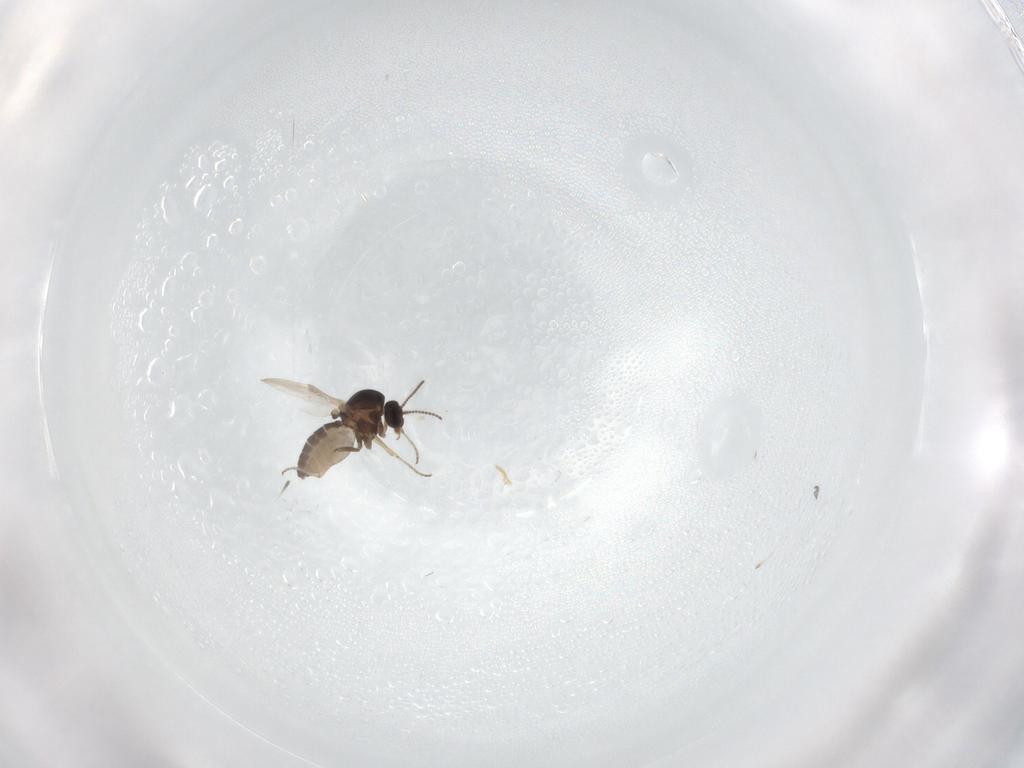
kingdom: Animalia
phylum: Arthropoda
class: Insecta
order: Diptera
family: Ceratopogonidae
